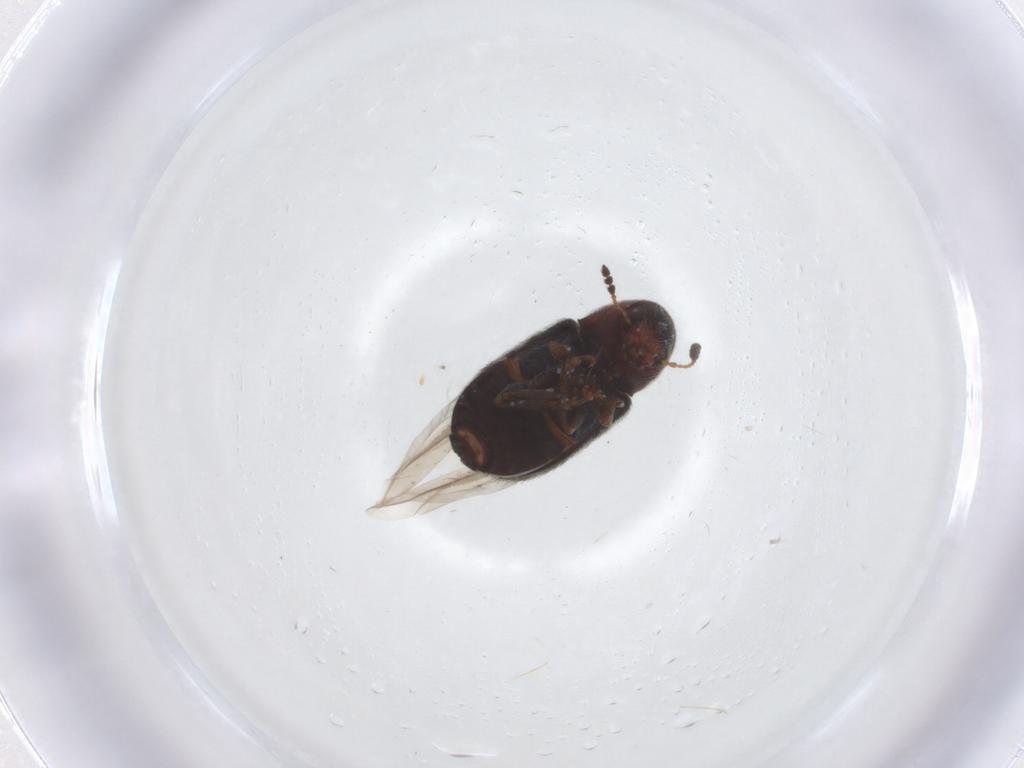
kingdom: Animalia
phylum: Arthropoda
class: Insecta
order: Coleoptera
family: Anthribidae
